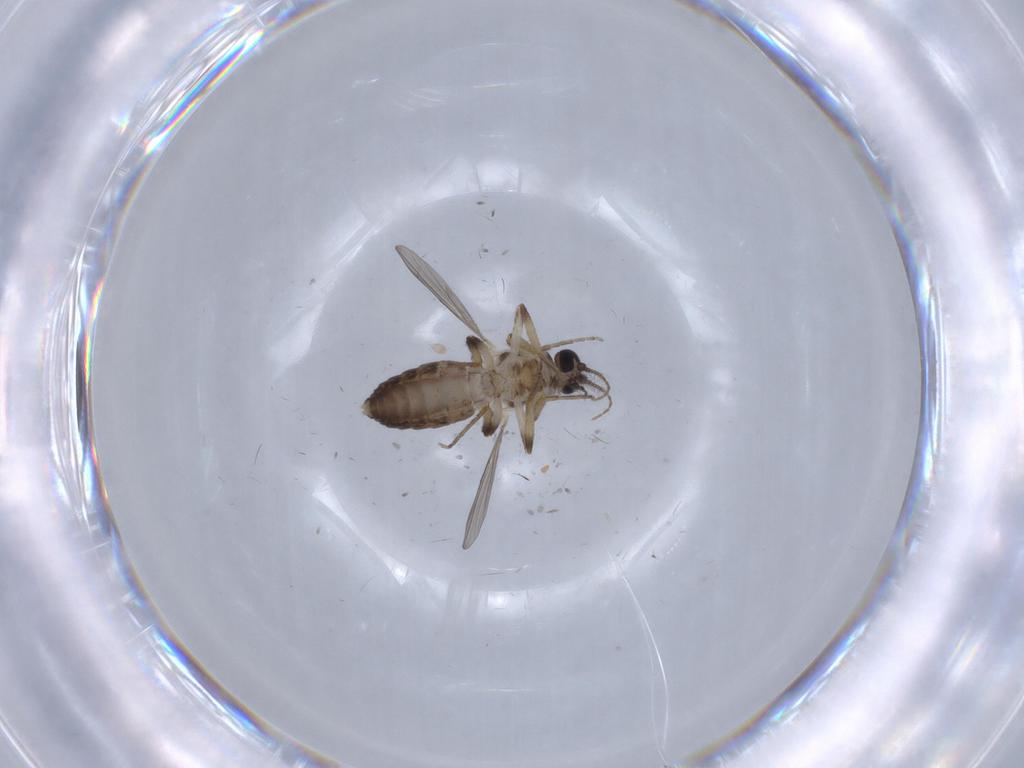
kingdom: Animalia
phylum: Arthropoda
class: Insecta
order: Diptera
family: Ceratopogonidae
